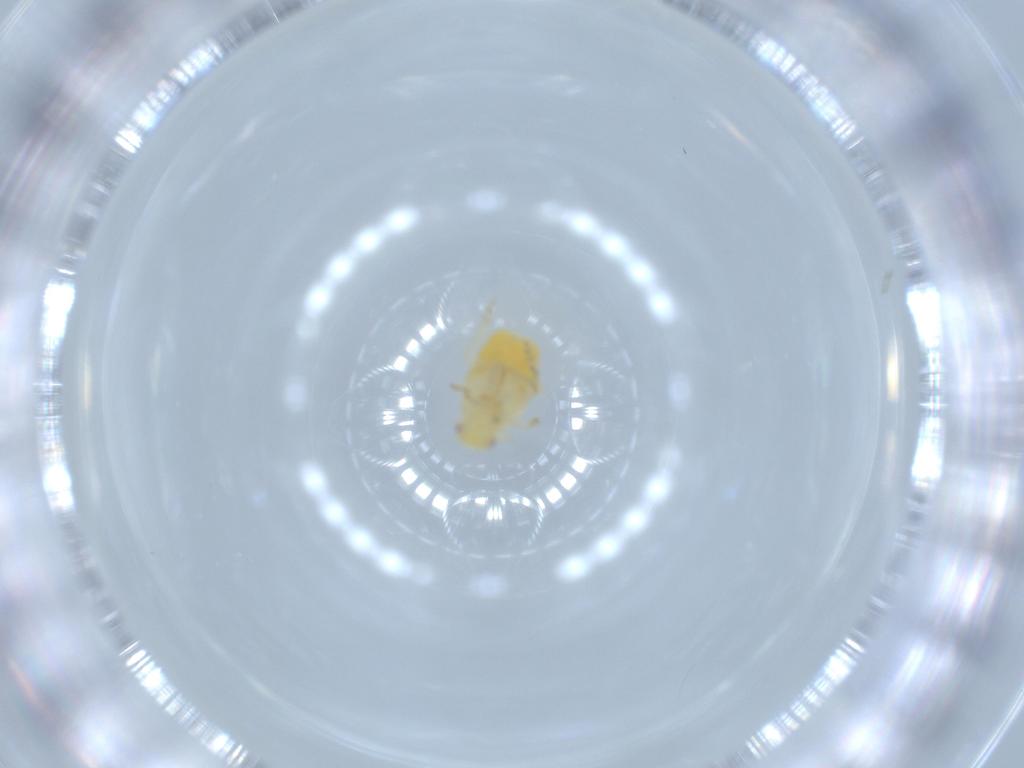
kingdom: Animalia
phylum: Arthropoda
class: Insecta
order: Hemiptera
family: Flatidae
